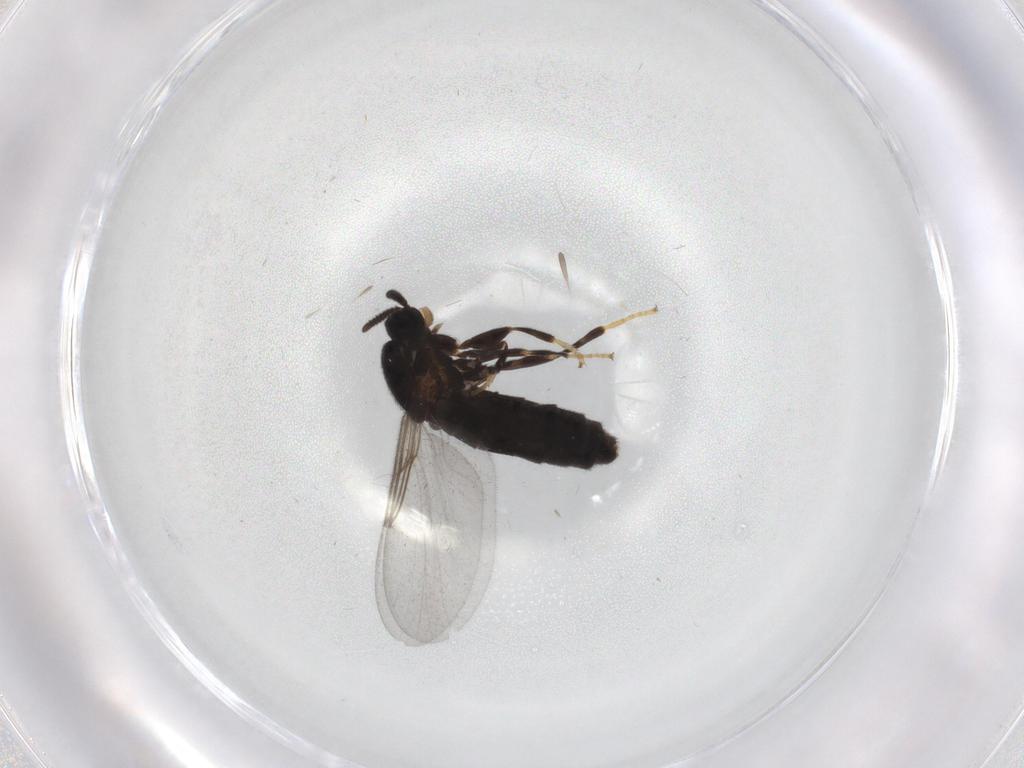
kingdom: Animalia
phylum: Arthropoda
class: Insecta
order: Diptera
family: Scatopsidae
